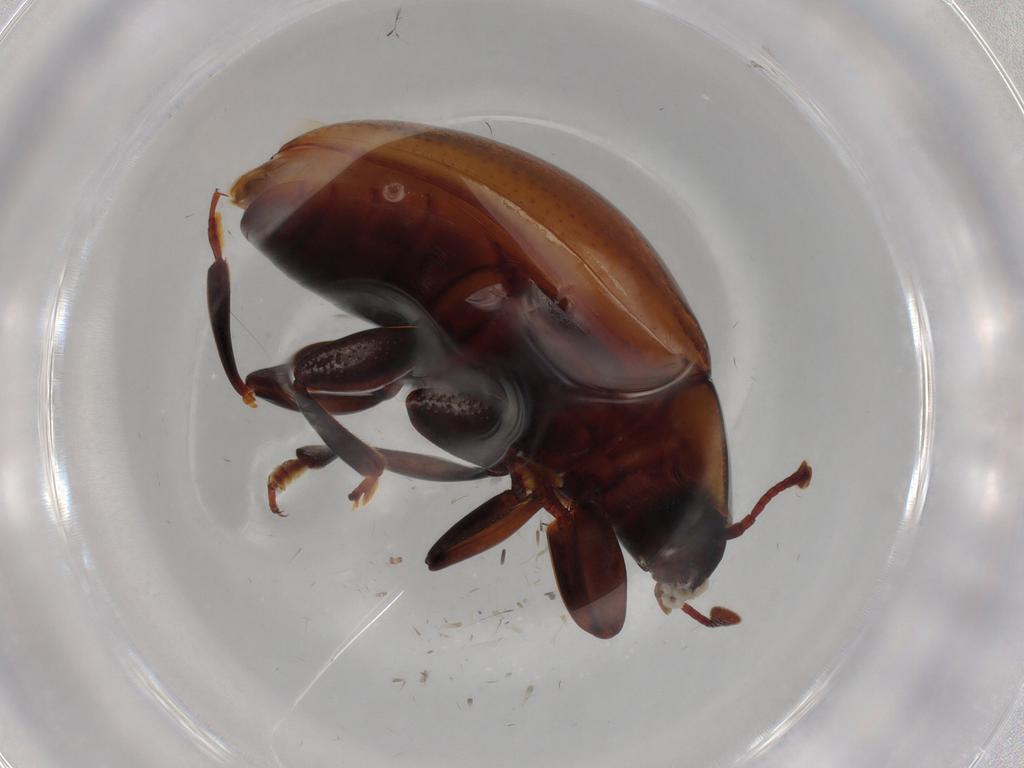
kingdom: Animalia
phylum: Arthropoda
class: Insecta
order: Coleoptera
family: Zopheridae
